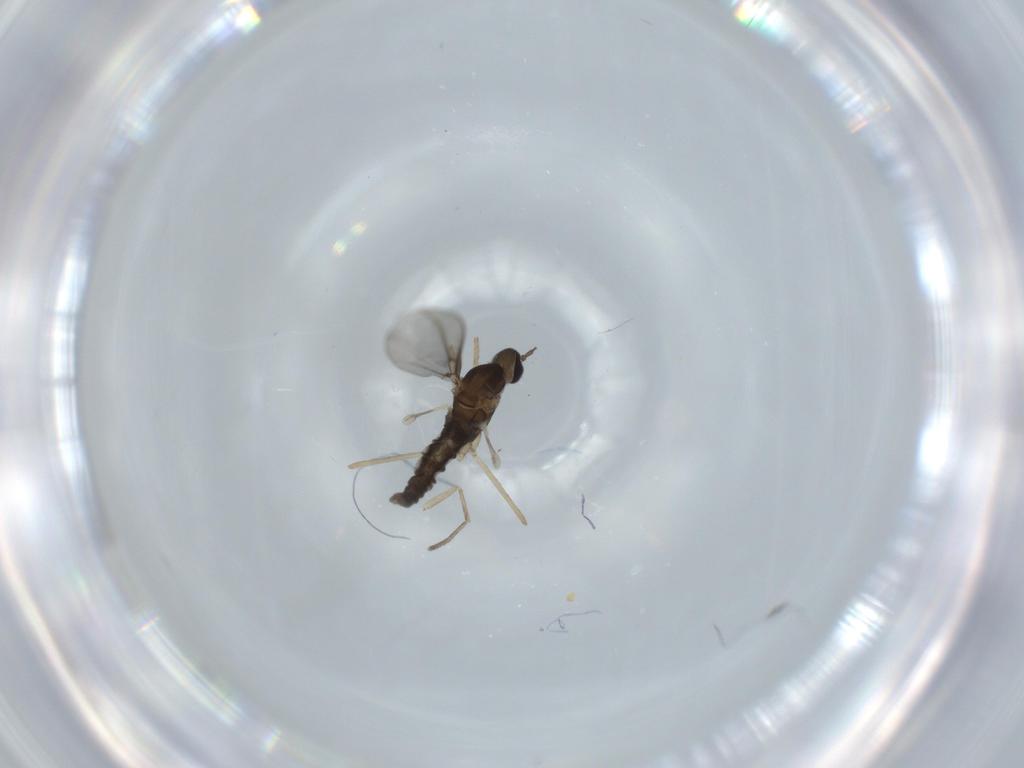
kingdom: Animalia
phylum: Arthropoda
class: Insecta
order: Diptera
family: Cecidomyiidae
